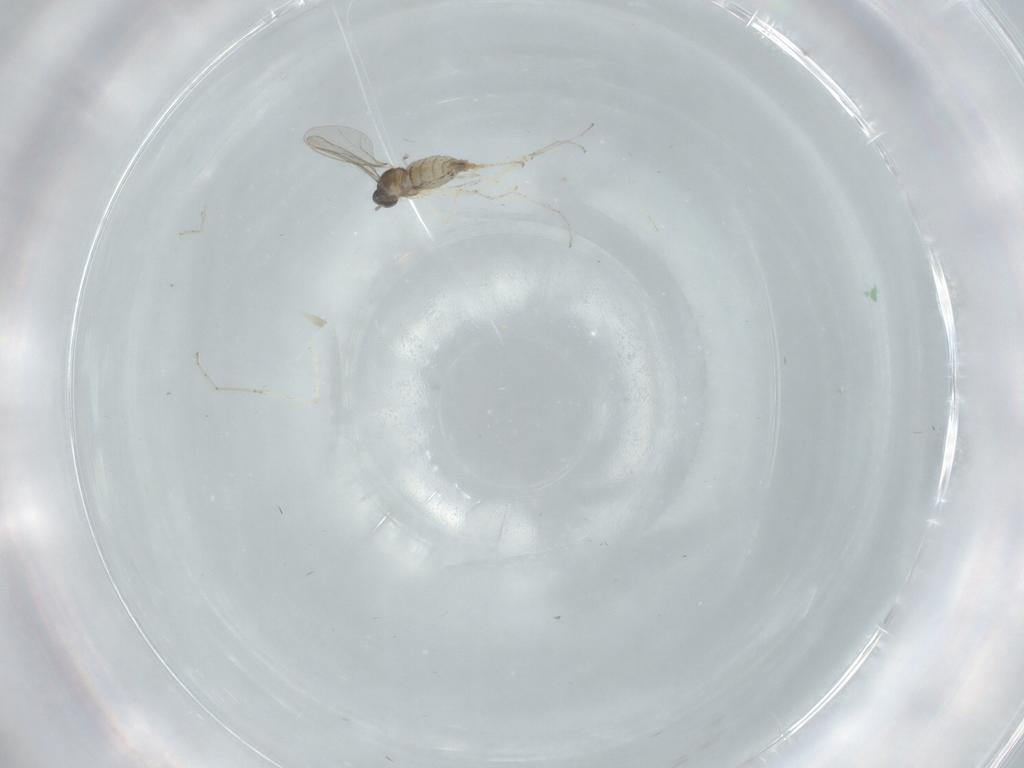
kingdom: Animalia
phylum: Arthropoda
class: Insecta
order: Diptera
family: Cecidomyiidae
